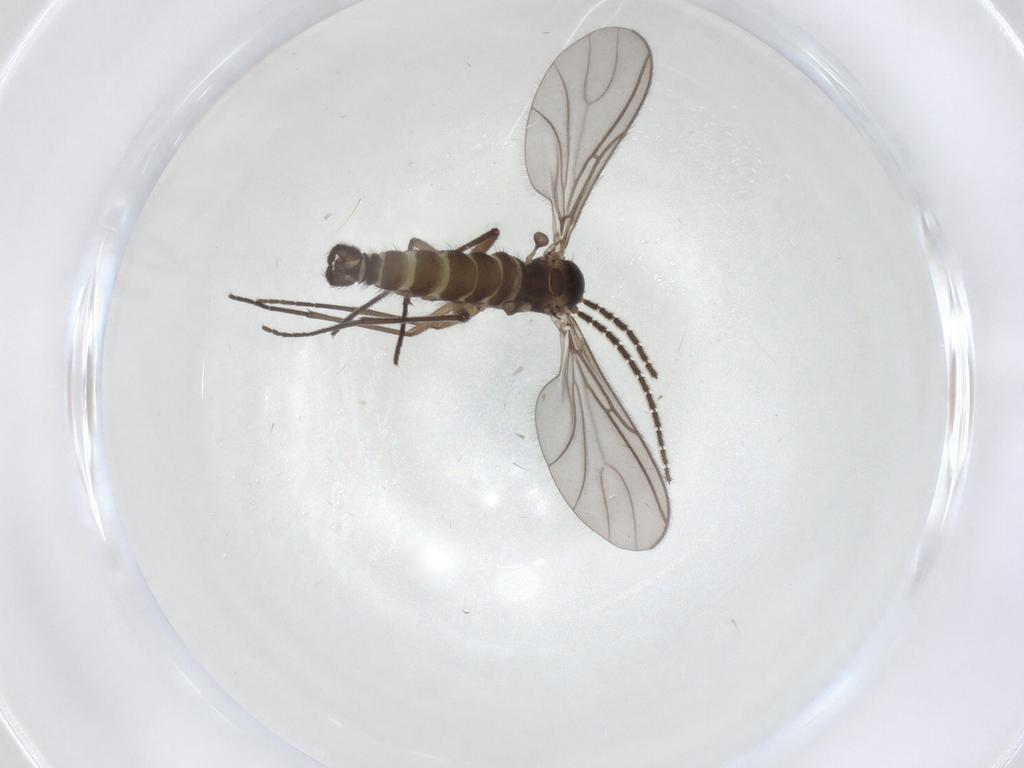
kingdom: Animalia
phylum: Arthropoda
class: Insecta
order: Diptera
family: Sciaridae
